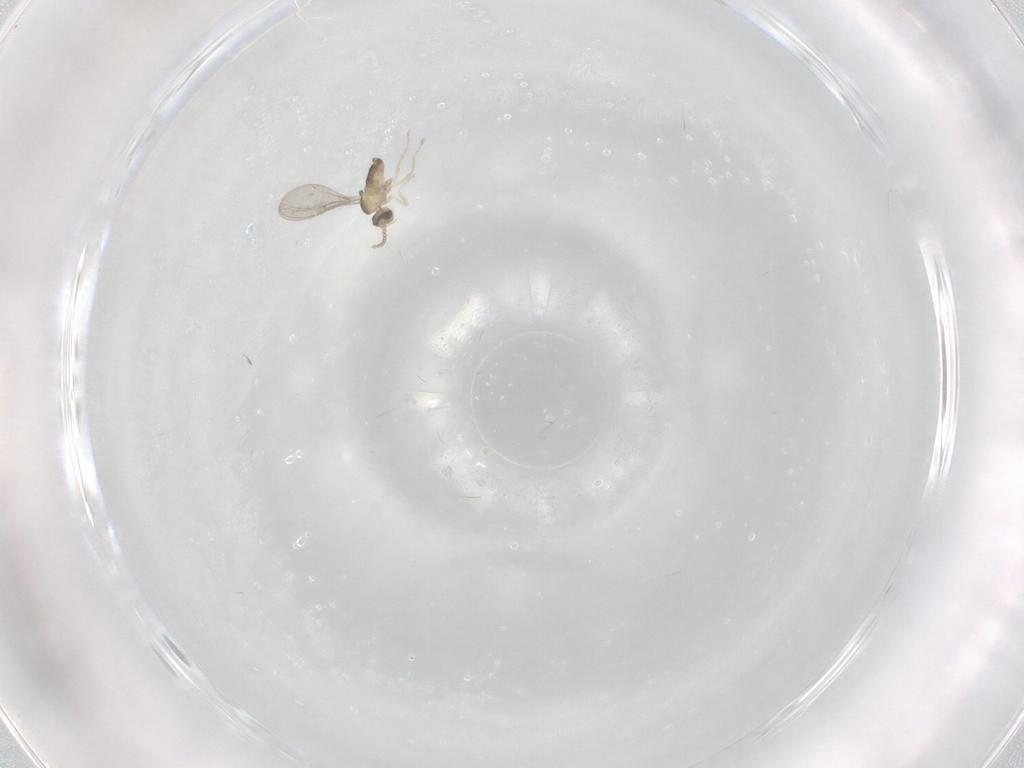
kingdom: Animalia
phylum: Arthropoda
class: Insecta
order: Diptera
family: Cecidomyiidae
